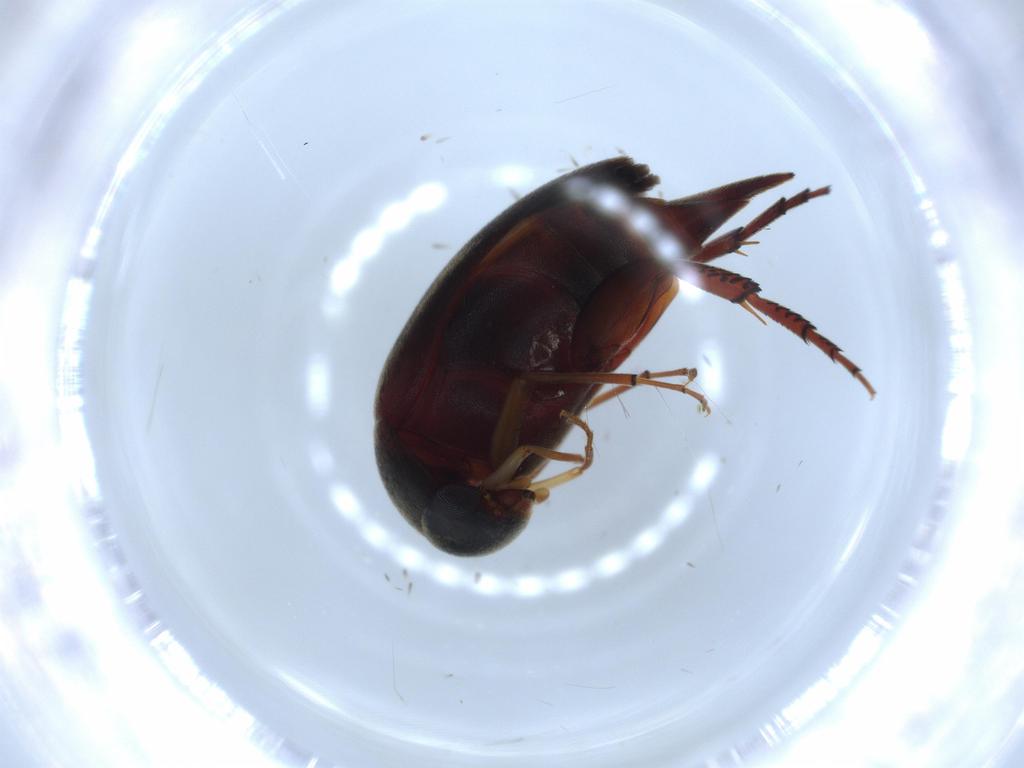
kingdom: Animalia
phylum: Arthropoda
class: Insecta
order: Coleoptera
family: Mordellidae
